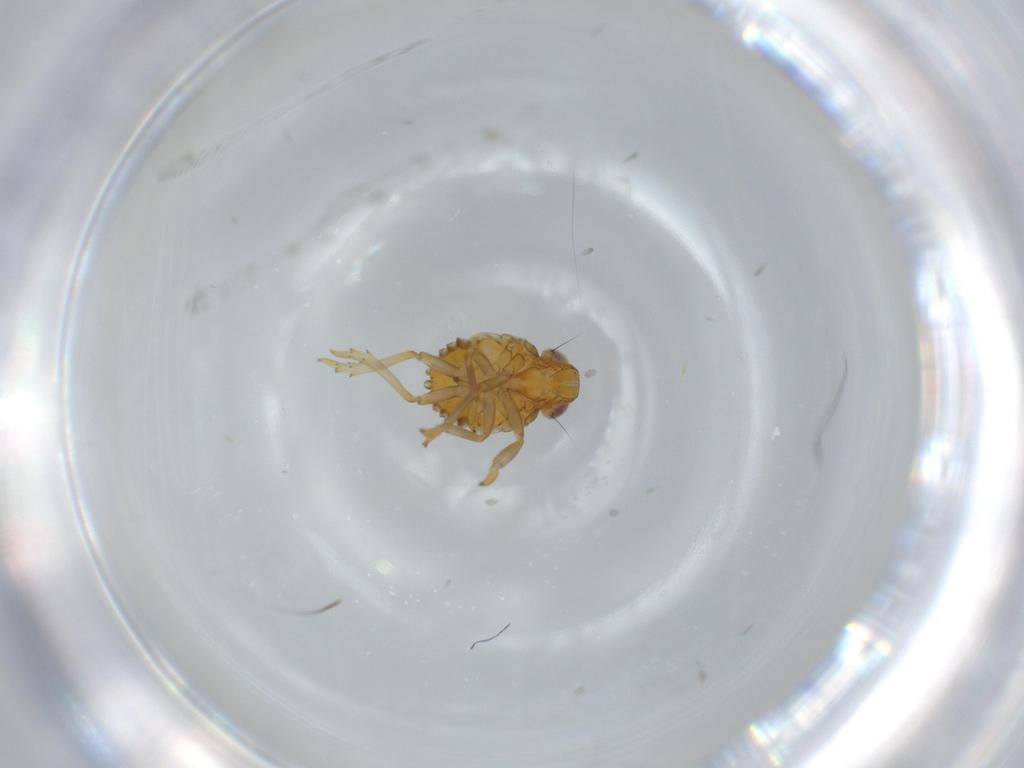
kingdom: Animalia
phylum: Arthropoda
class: Insecta
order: Hemiptera
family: Issidae
